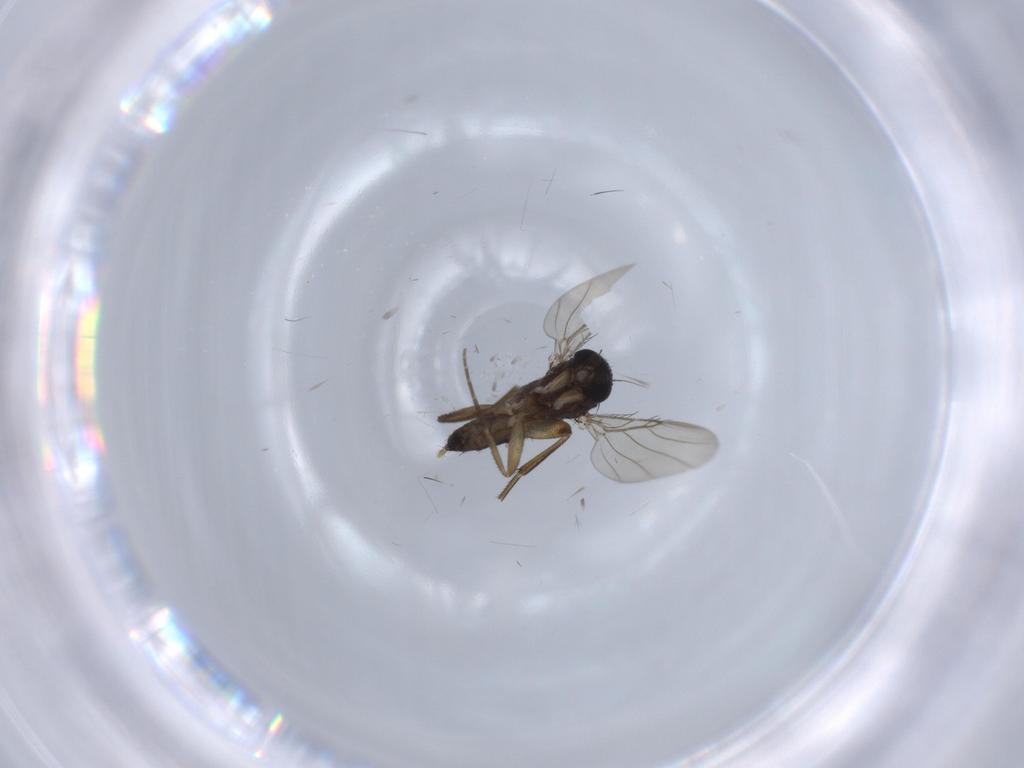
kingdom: Animalia
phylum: Arthropoda
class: Insecta
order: Diptera
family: Phoridae
